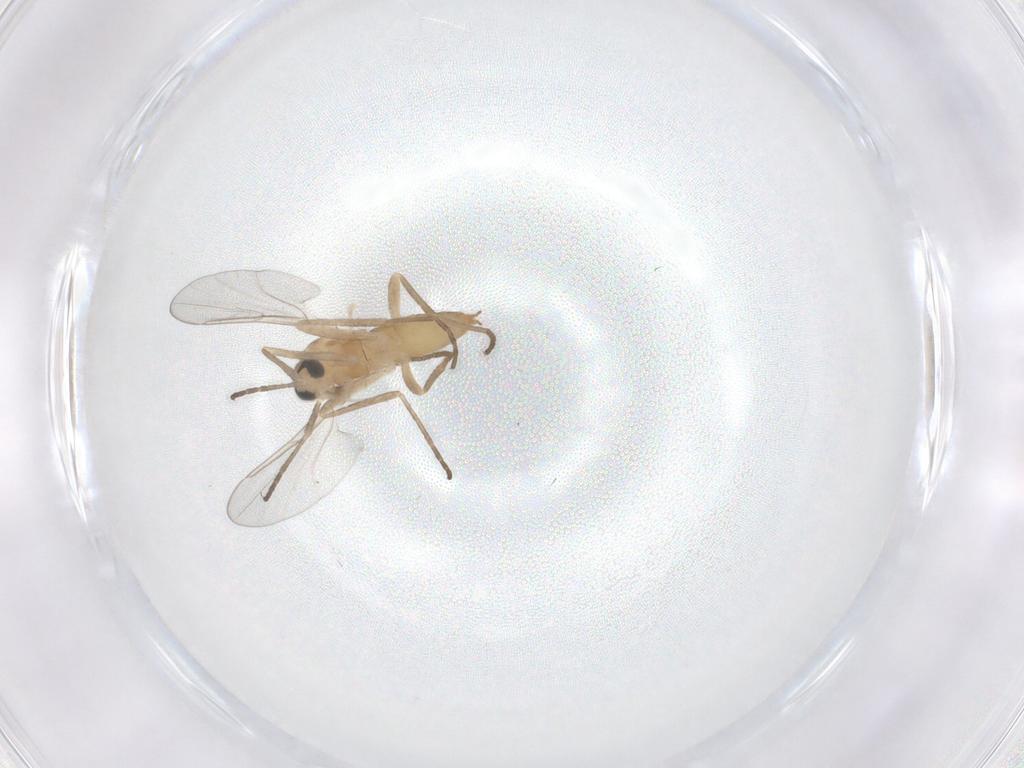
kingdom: Animalia
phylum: Arthropoda
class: Insecta
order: Diptera
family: Cecidomyiidae
